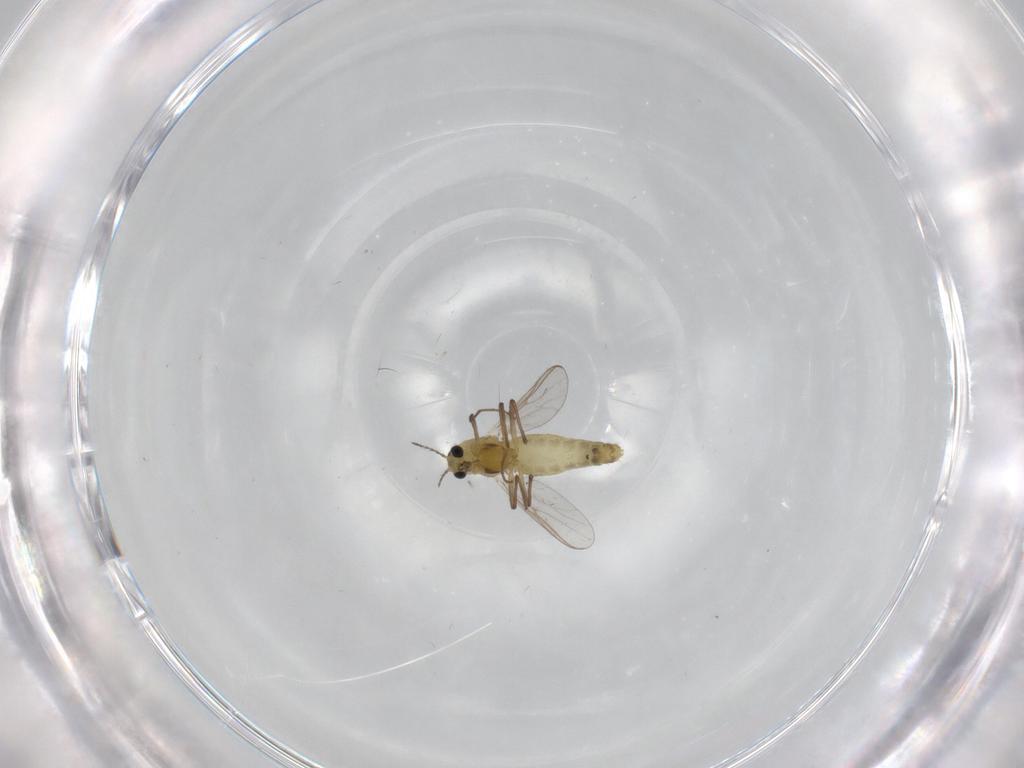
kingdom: Animalia
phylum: Arthropoda
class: Insecta
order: Diptera
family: Chironomidae
